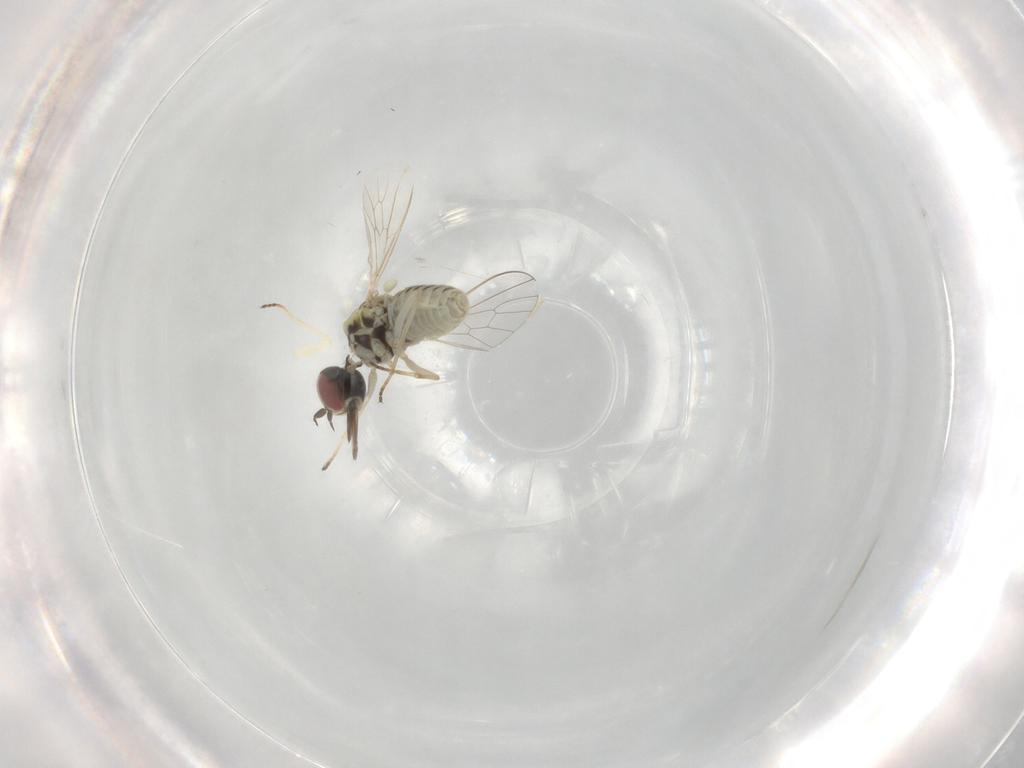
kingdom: Animalia
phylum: Arthropoda
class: Insecta
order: Diptera
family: Mythicomyiidae
